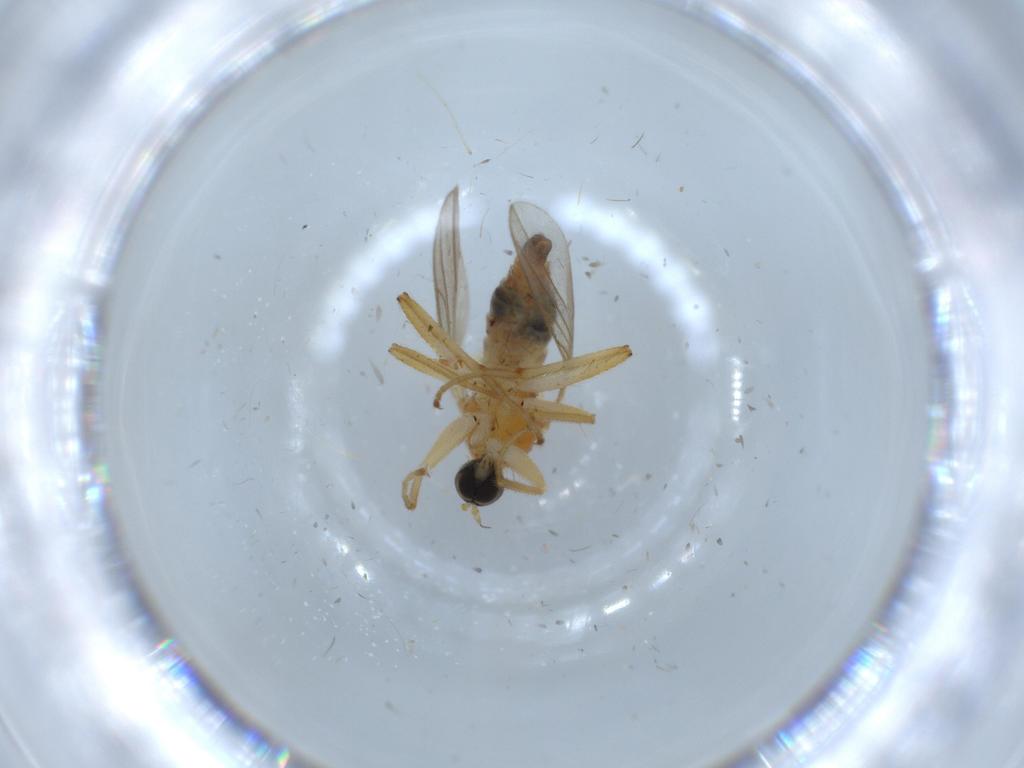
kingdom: Animalia
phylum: Arthropoda
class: Insecta
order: Diptera
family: Hybotidae
